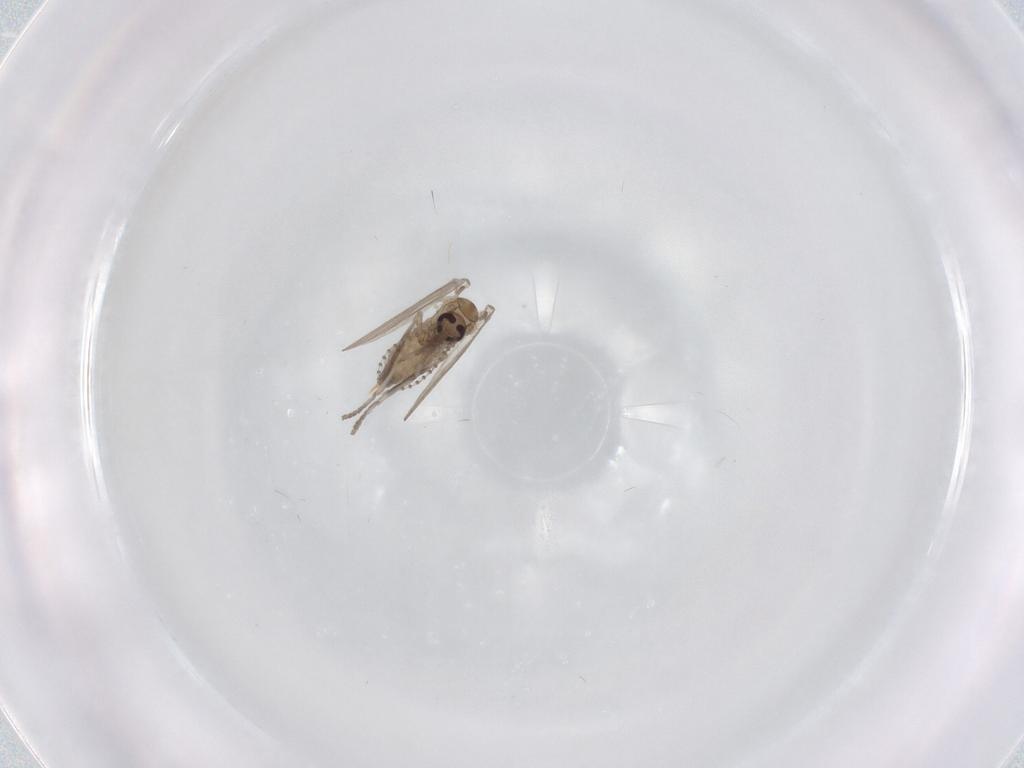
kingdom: Animalia
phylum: Arthropoda
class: Insecta
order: Diptera
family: Psychodidae
